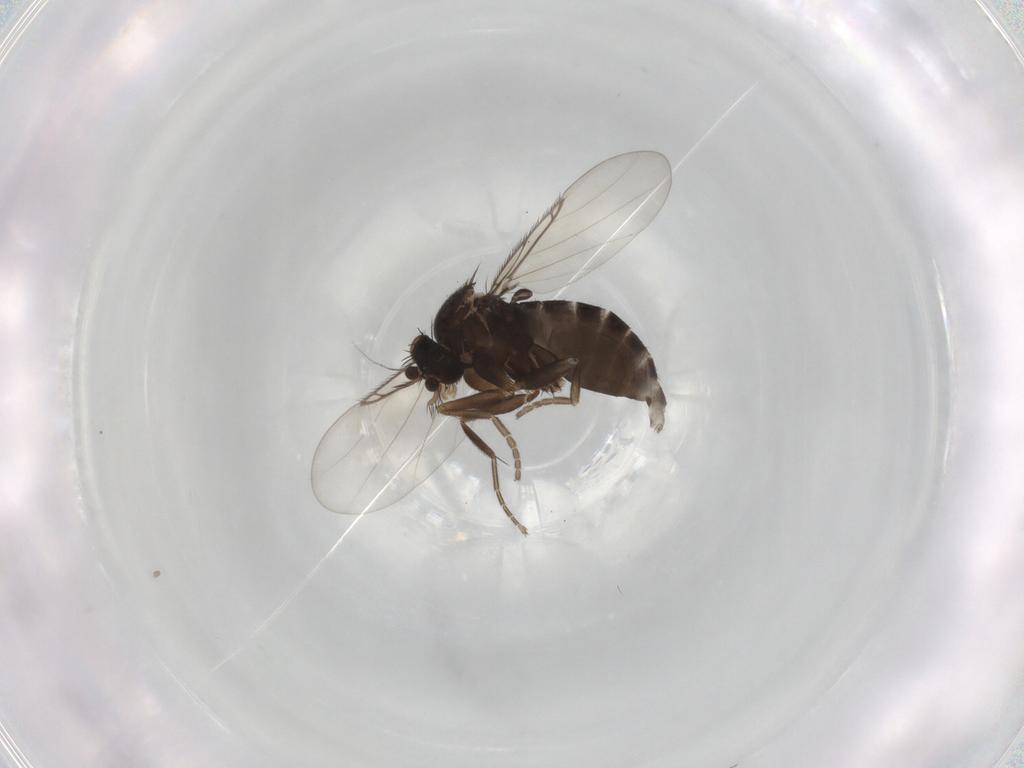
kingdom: Animalia
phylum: Arthropoda
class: Insecta
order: Diptera
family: Phoridae
